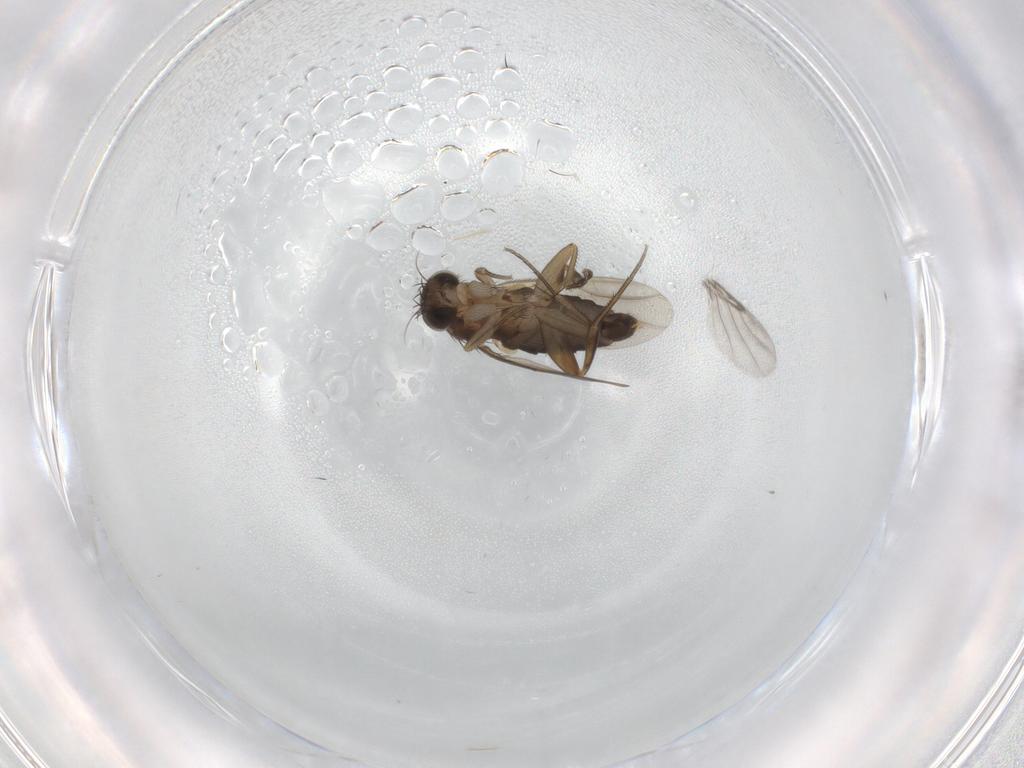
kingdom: Animalia
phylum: Arthropoda
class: Insecta
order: Diptera
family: Phoridae
